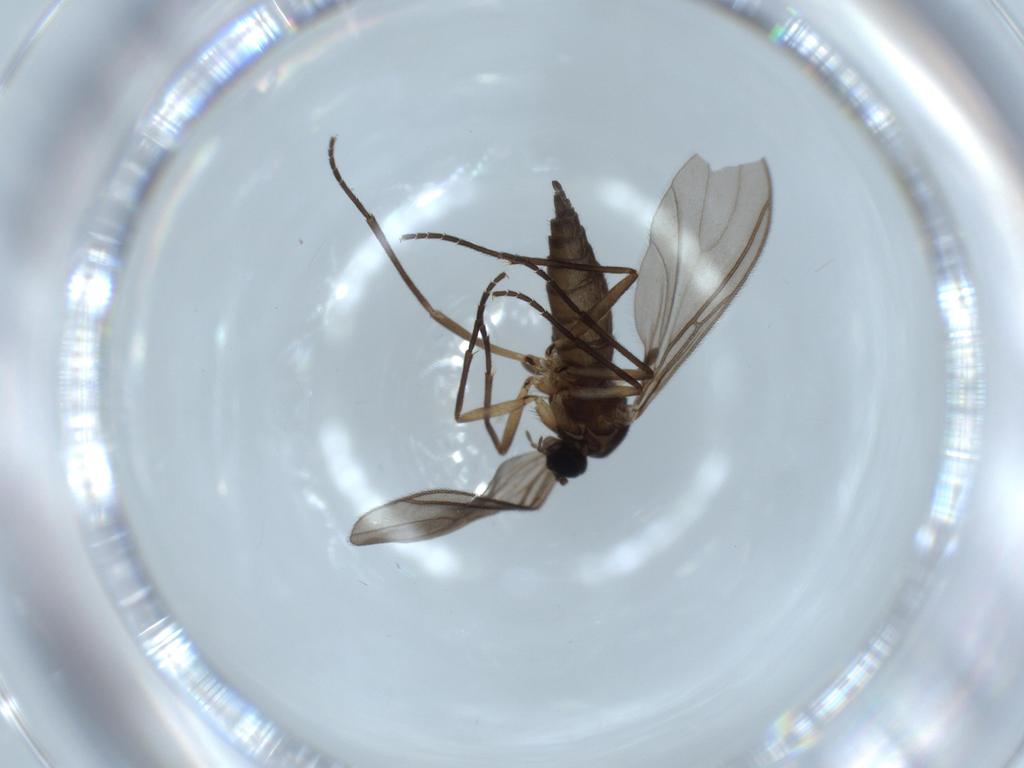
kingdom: Animalia
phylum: Arthropoda
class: Insecta
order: Diptera
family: Sciaridae
